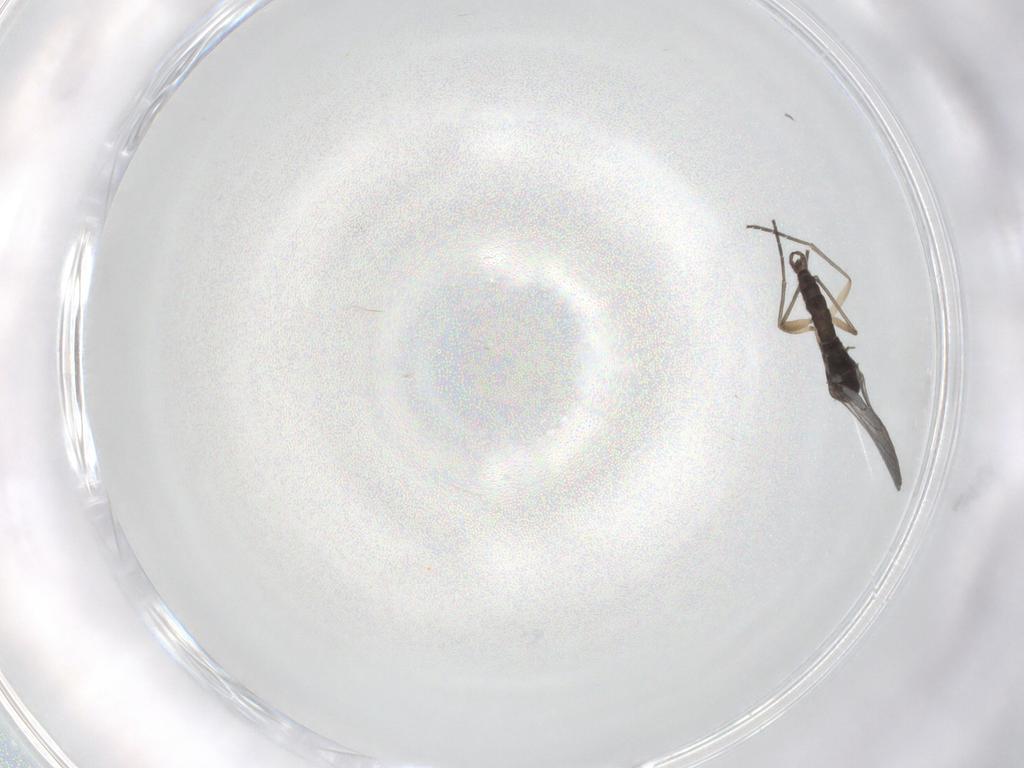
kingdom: Animalia
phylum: Arthropoda
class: Insecta
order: Diptera
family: Sciaridae
